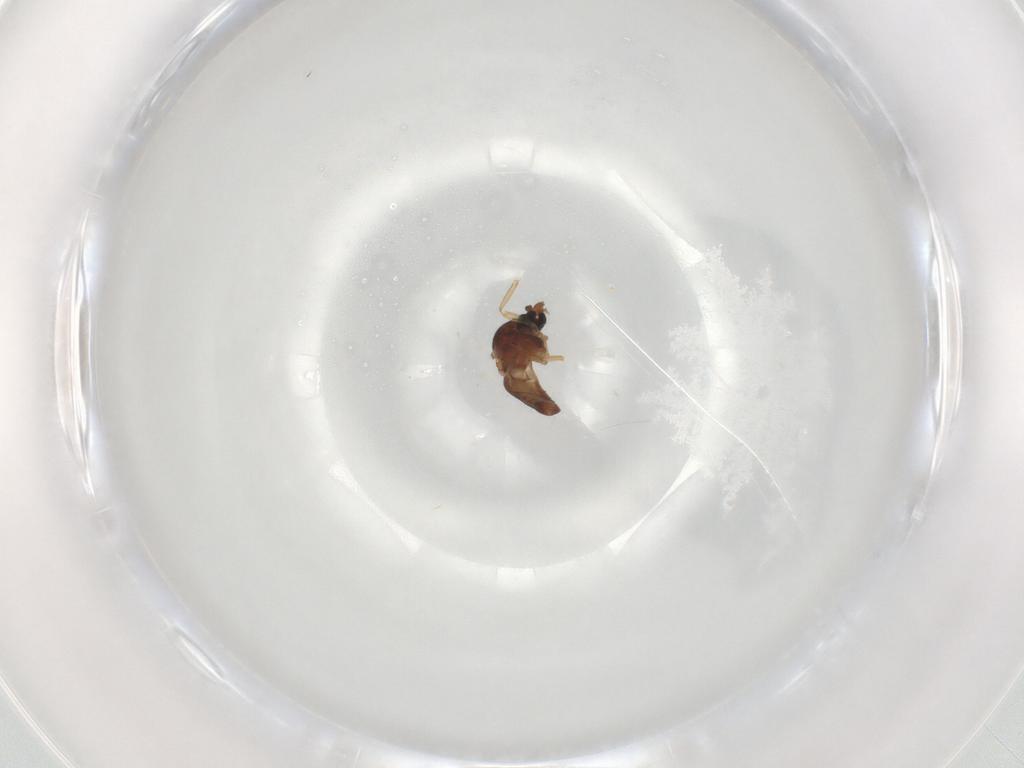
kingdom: Animalia
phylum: Arthropoda
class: Insecta
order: Diptera
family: Ceratopogonidae
